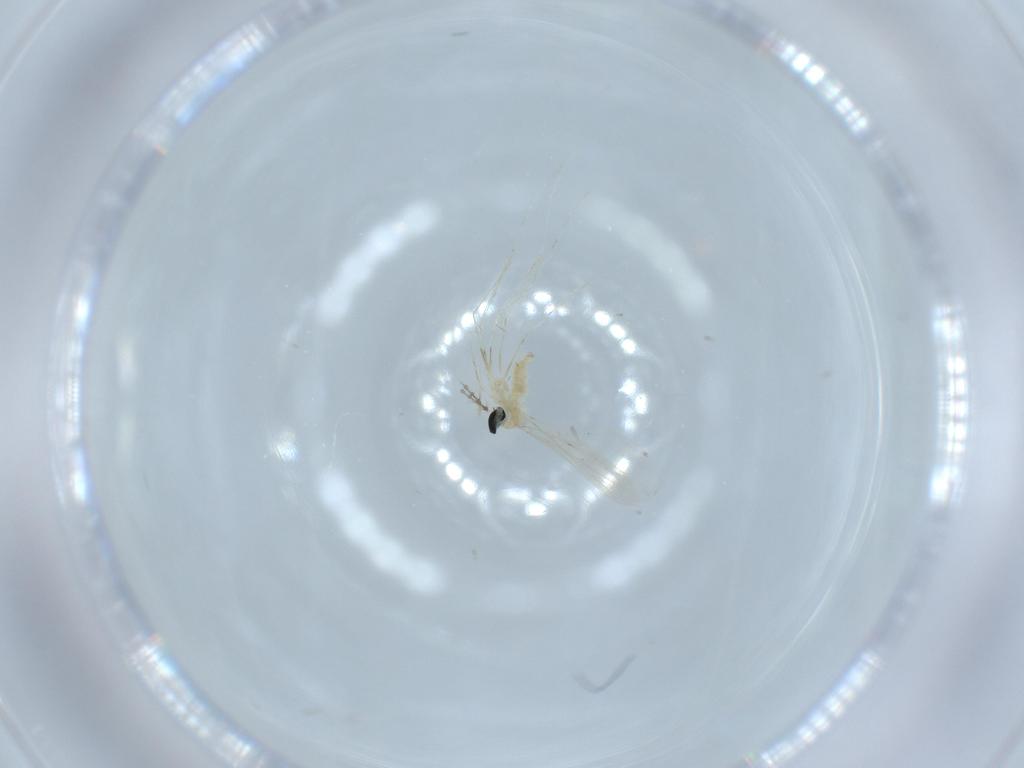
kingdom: Animalia
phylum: Arthropoda
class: Insecta
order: Diptera
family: Cecidomyiidae
